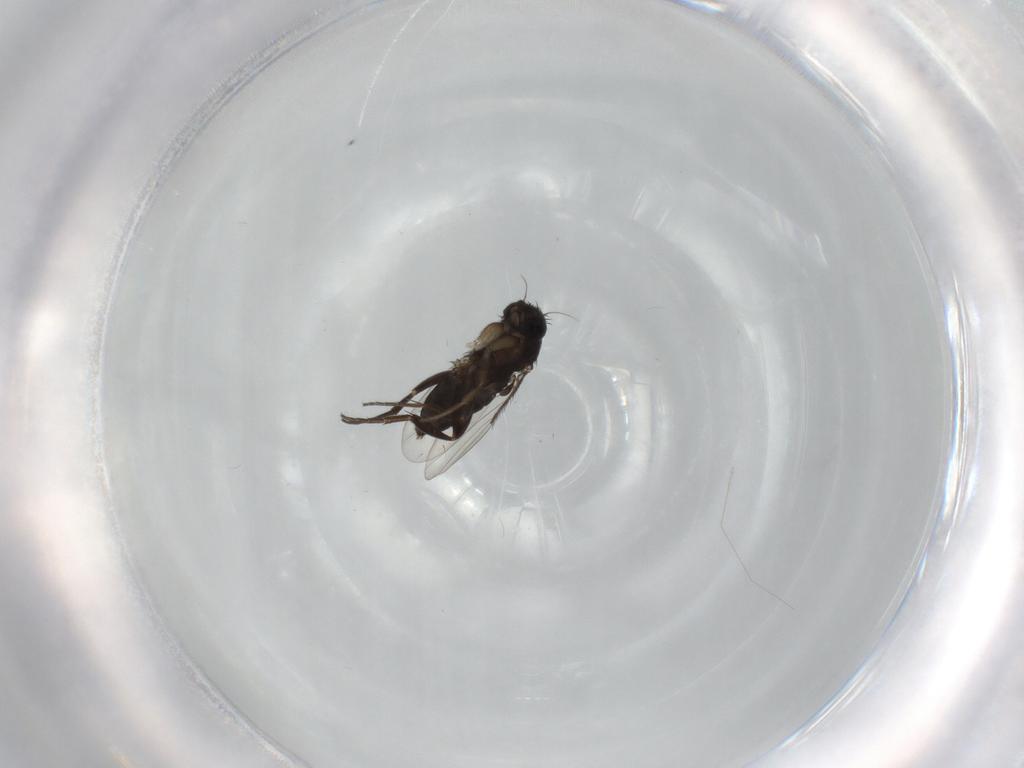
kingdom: Animalia
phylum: Arthropoda
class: Insecta
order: Diptera
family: Phoridae
